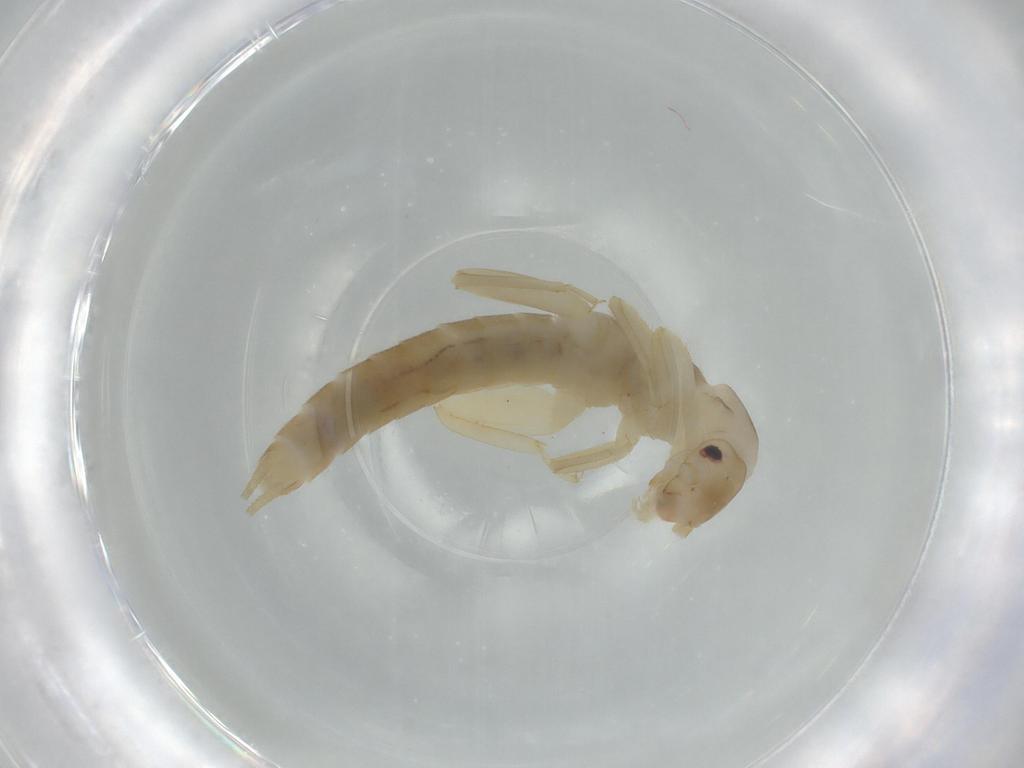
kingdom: Animalia
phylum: Arthropoda
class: Insecta
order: Plecoptera
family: Leuctridae
